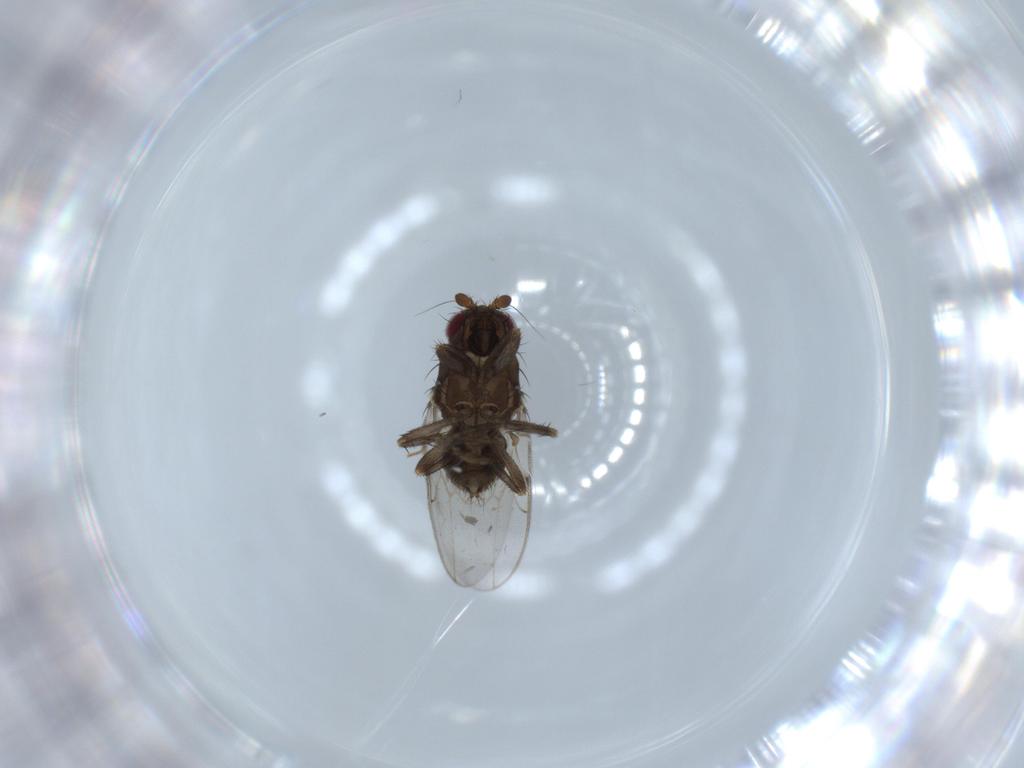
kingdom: Animalia
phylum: Arthropoda
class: Insecta
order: Diptera
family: Sphaeroceridae
